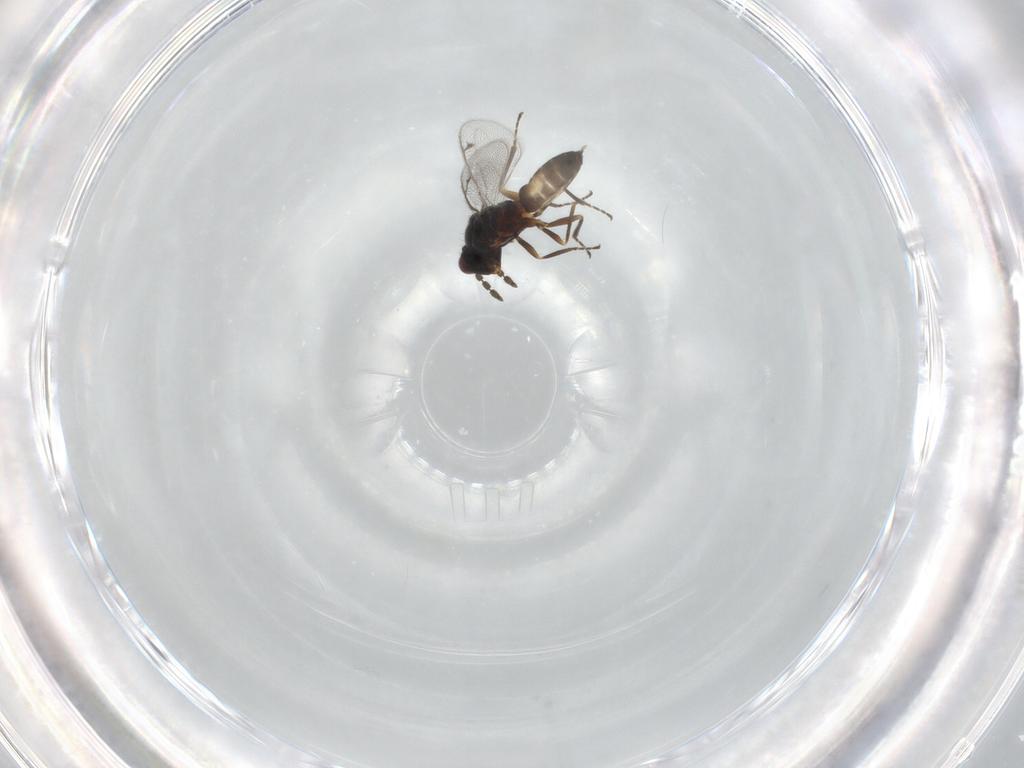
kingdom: Animalia
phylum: Arthropoda
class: Insecta
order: Hymenoptera
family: Eulophidae
